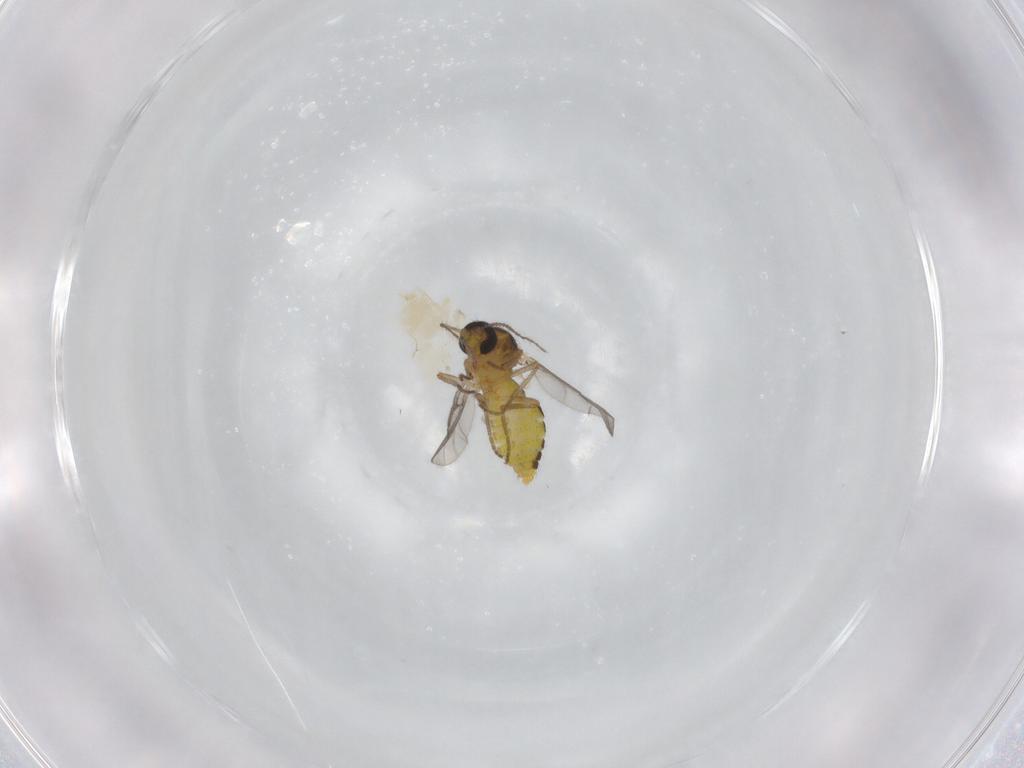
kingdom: Animalia
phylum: Arthropoda
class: Insecta
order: Diptera
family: Ceratopogonidae
